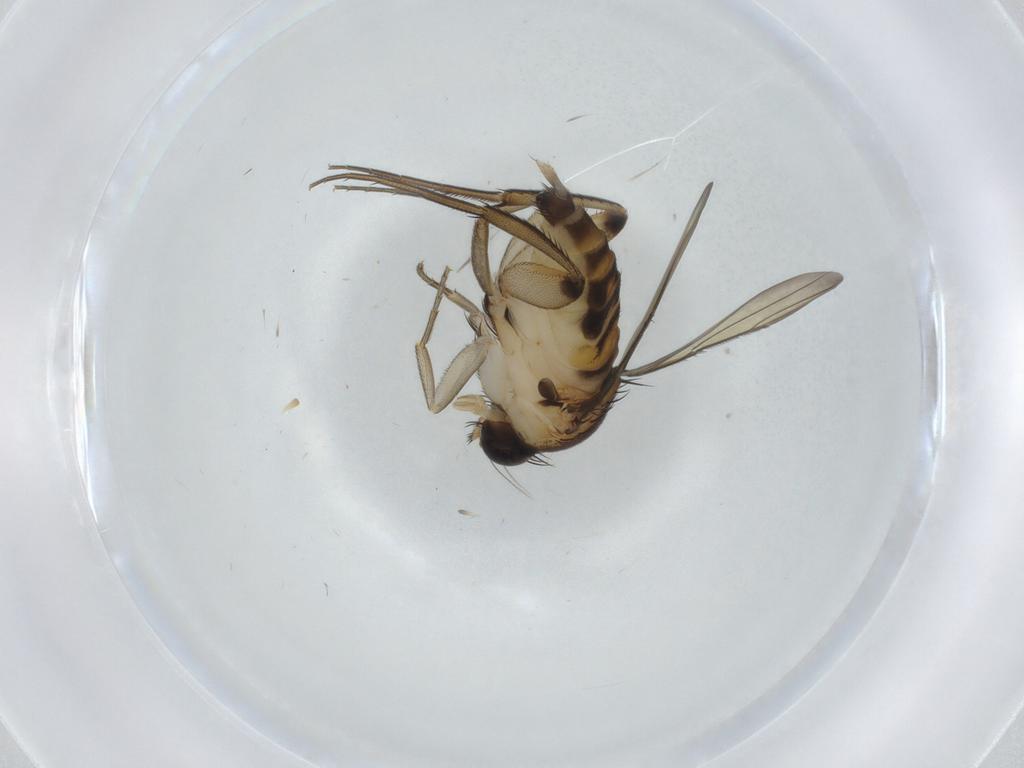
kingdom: Animalia
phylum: Arthropoda
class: Insecta
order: Diptera
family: Phoridae
